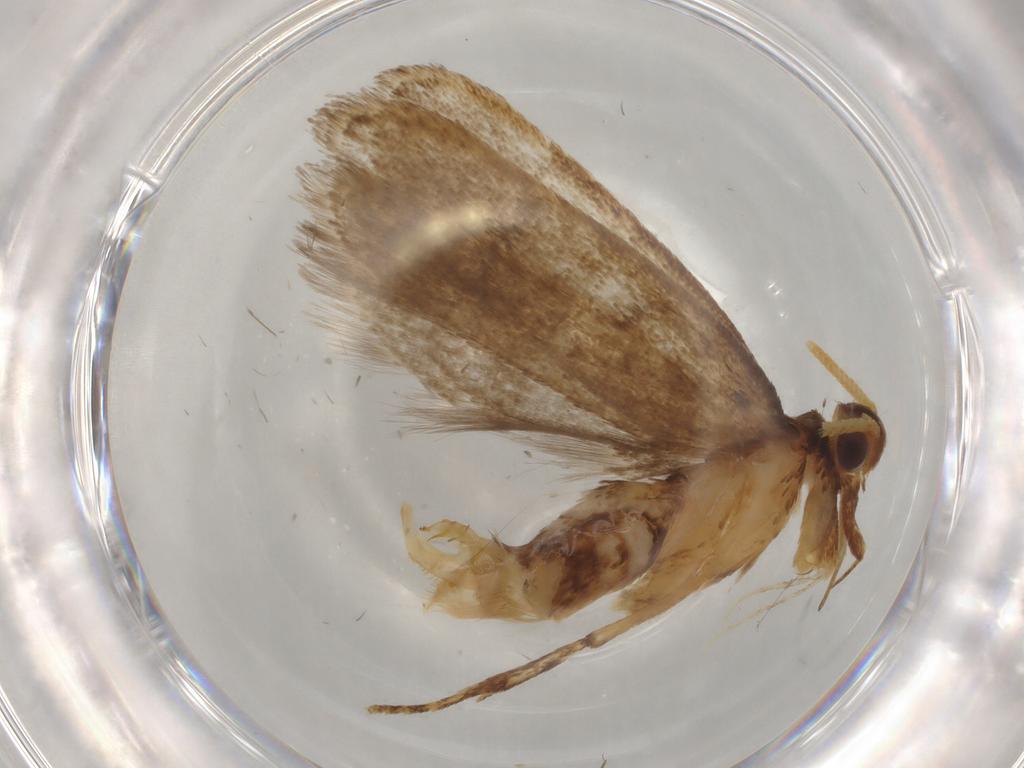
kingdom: Animalia
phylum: Arthropoda
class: Insecta
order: Lepidoptera
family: Lecithoceridae
